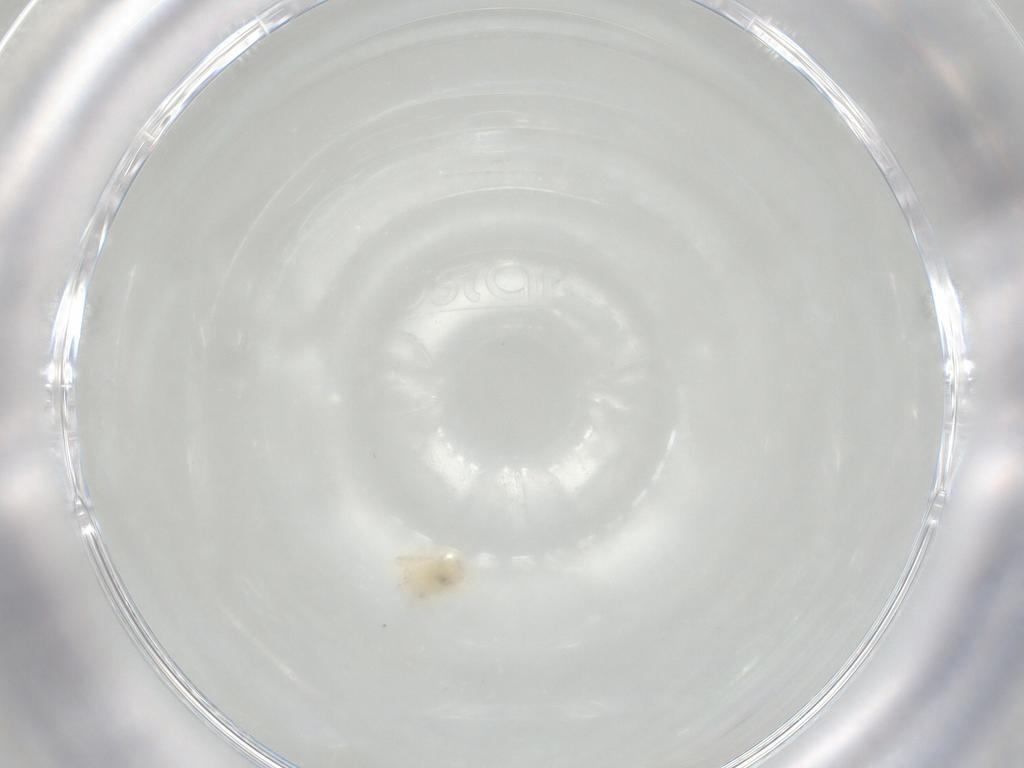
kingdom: Animalia
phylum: Arthropoda
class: Arachnida
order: Trombidiformes
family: Anystidae
